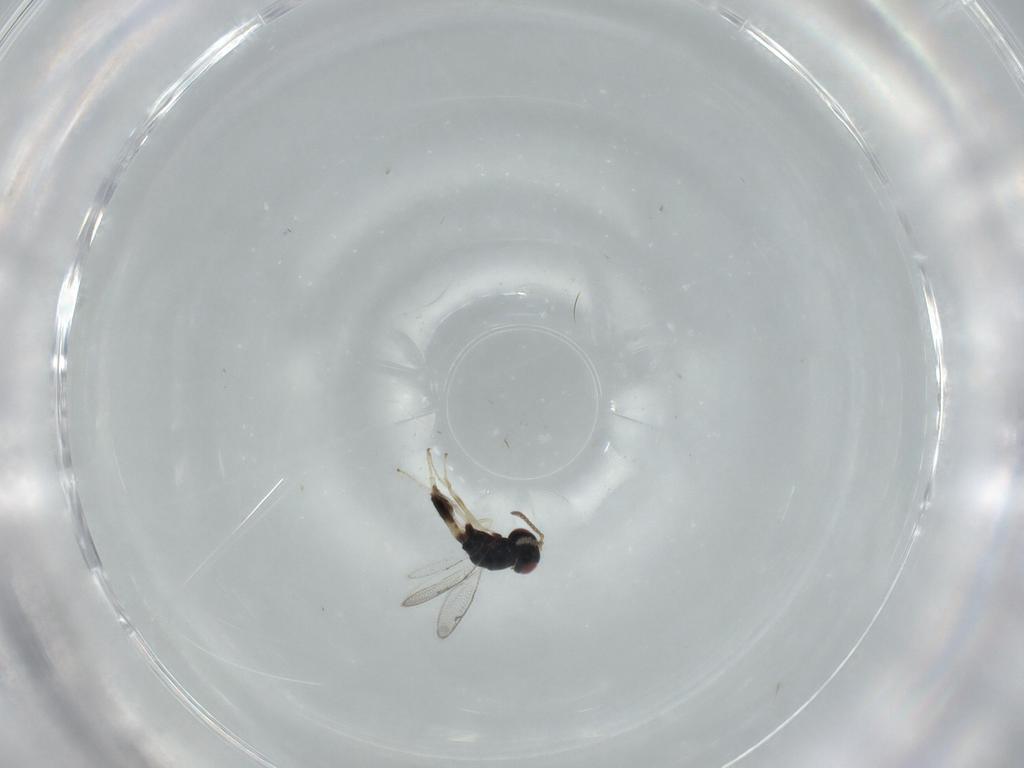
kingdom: Animalia
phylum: Arthropoda
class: Insecta
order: Hymenoptera
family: Pteromalidae
